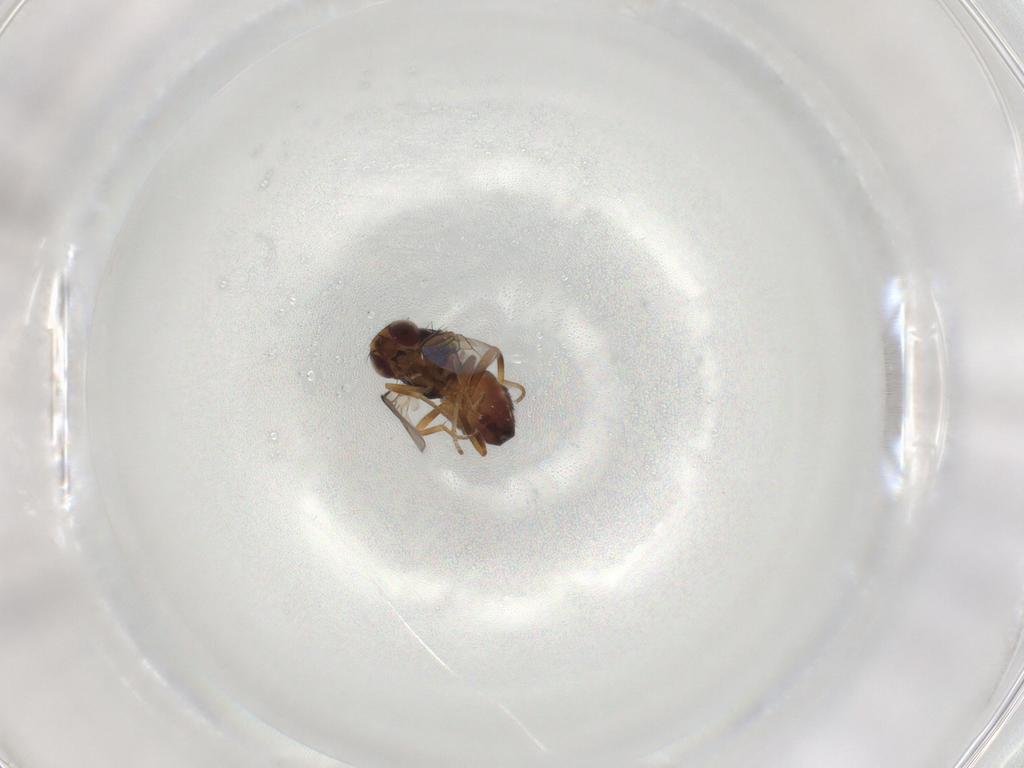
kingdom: Animalia
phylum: Arthropoda
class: Insecta
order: Diptera
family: Chloropidae
